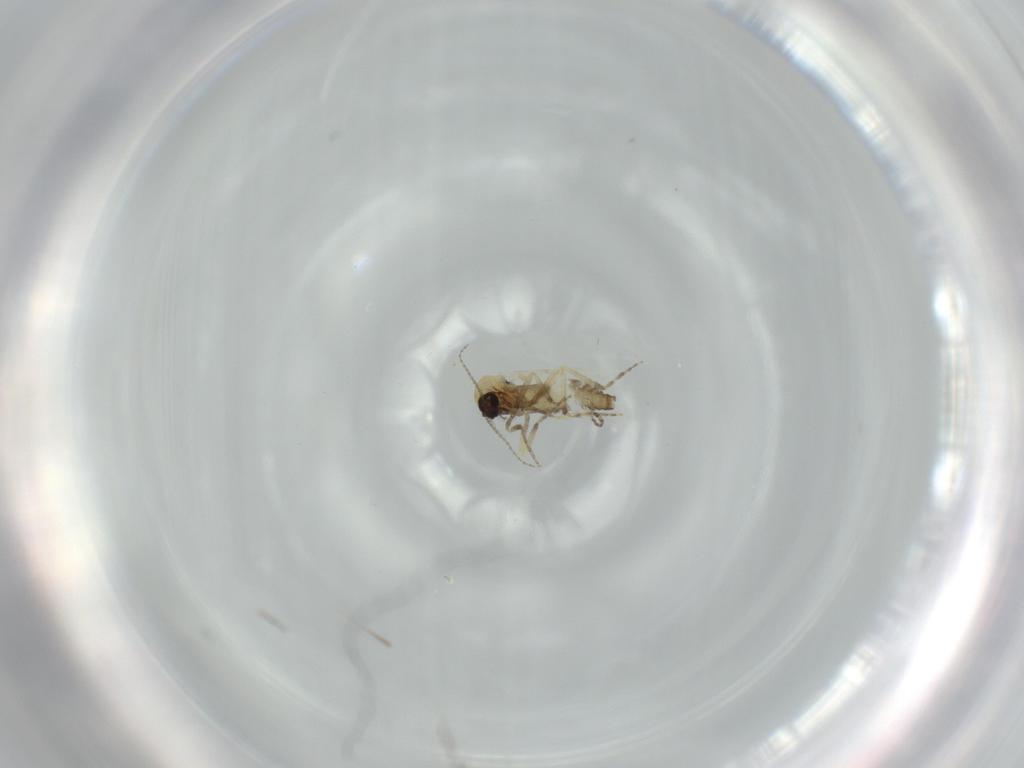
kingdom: Animalia
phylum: Arthropoda
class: Insecta
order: Diptera
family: Ceratopogonidae
